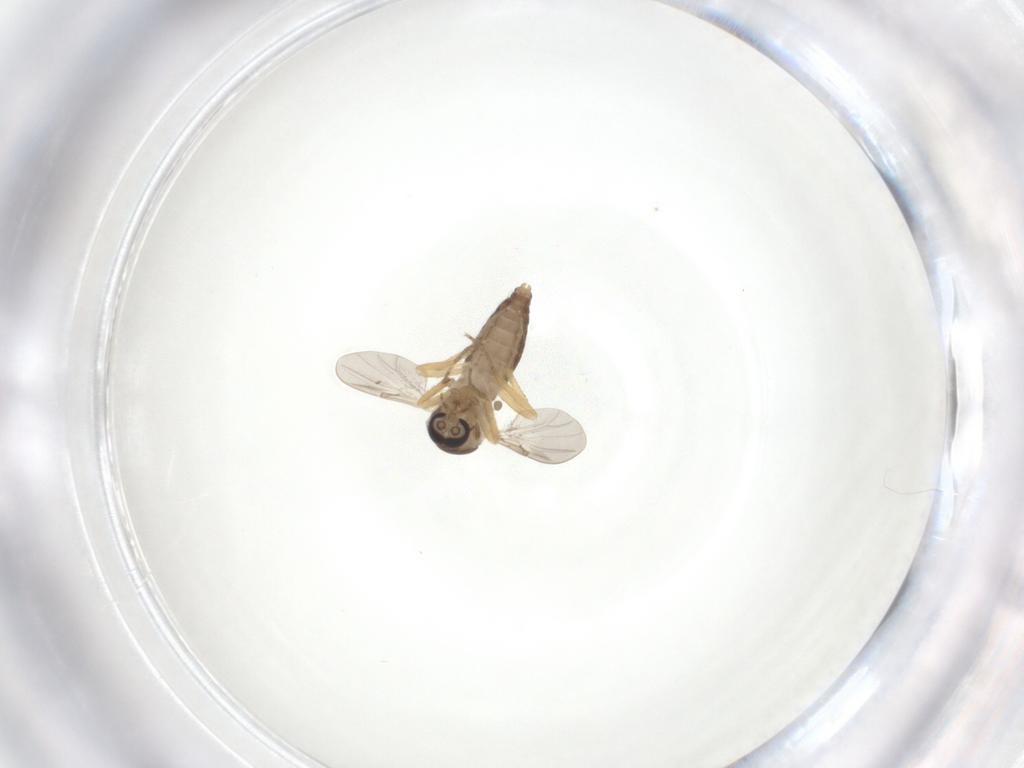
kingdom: Animalia
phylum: Arthropoda
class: Insecta
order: Diptera
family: Ceratopogonidae
